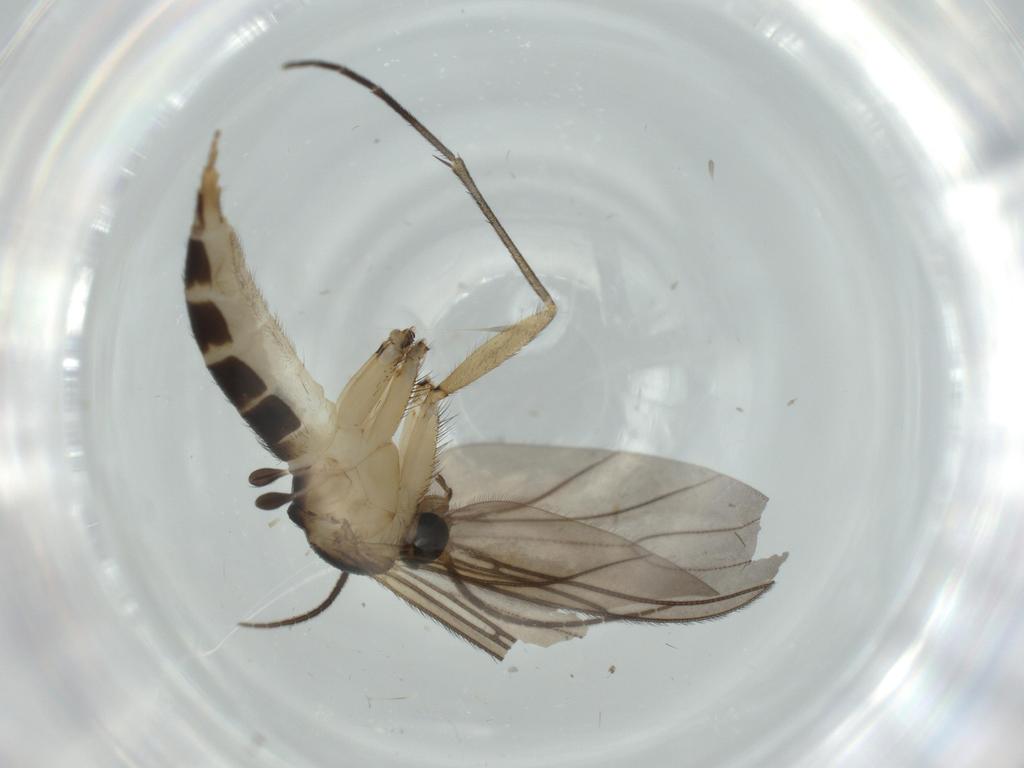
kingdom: Animalia
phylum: Arthropoda
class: Insecta
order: Diptera
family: Sciaridae
